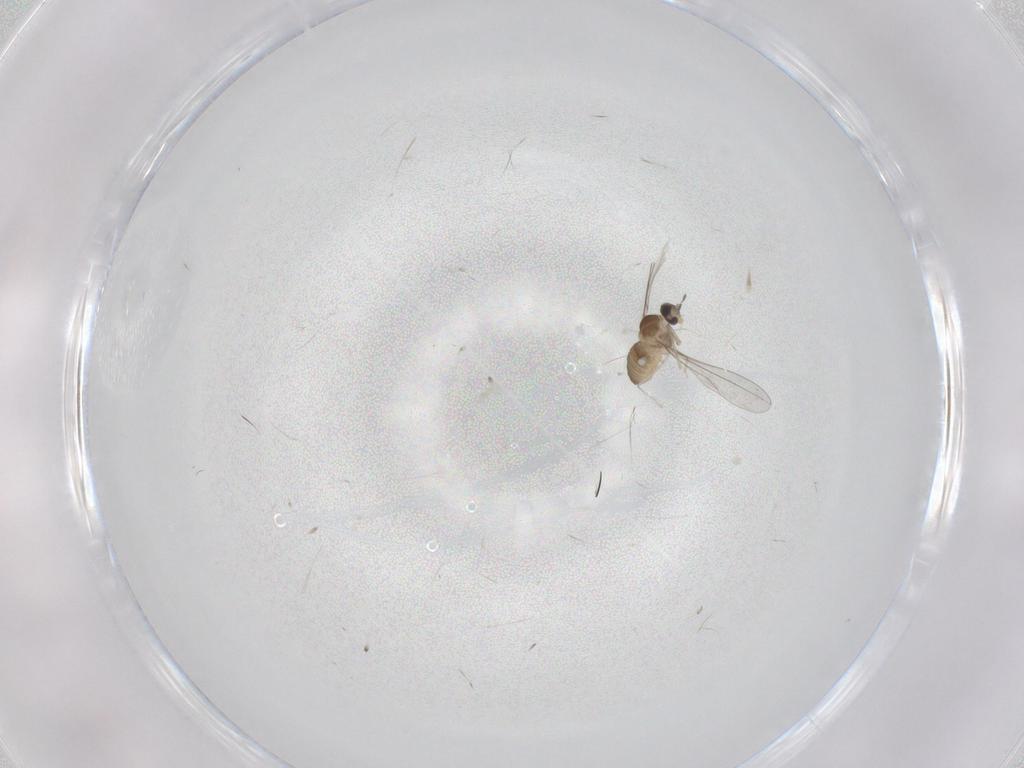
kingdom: Animalia
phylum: Arthropoda
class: Insecta
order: Diptera
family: Cecidomyiidae
